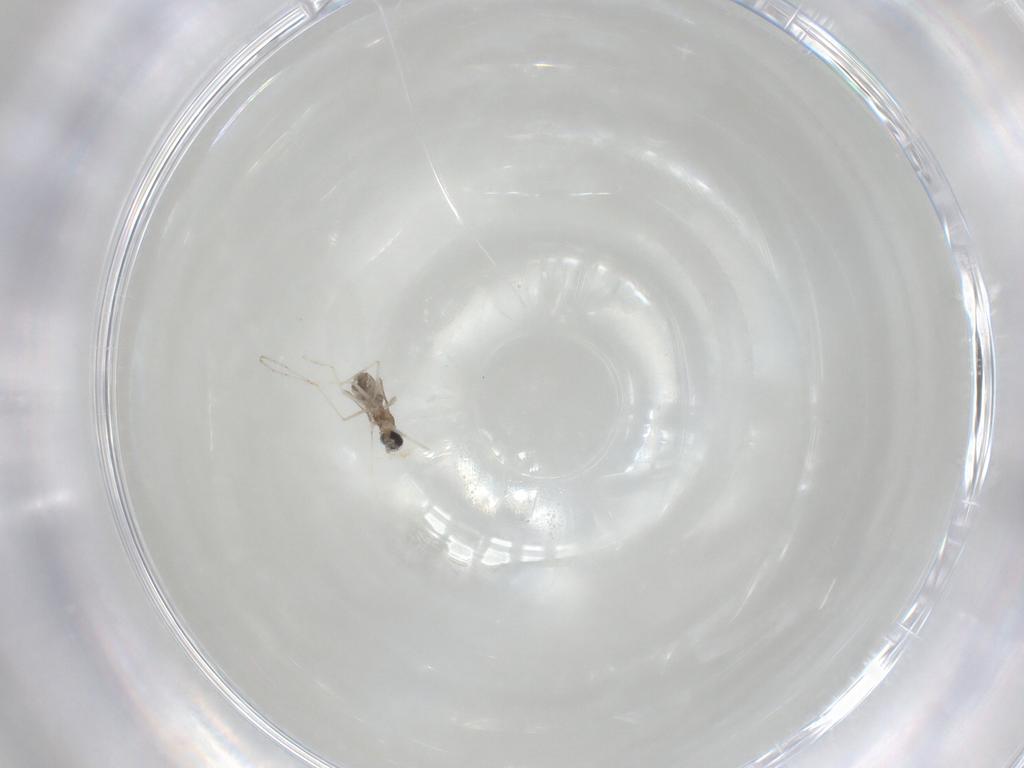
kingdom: Animalia
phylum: Arthropoda
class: Insecta
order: Diptera
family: Cecidomyiidae
